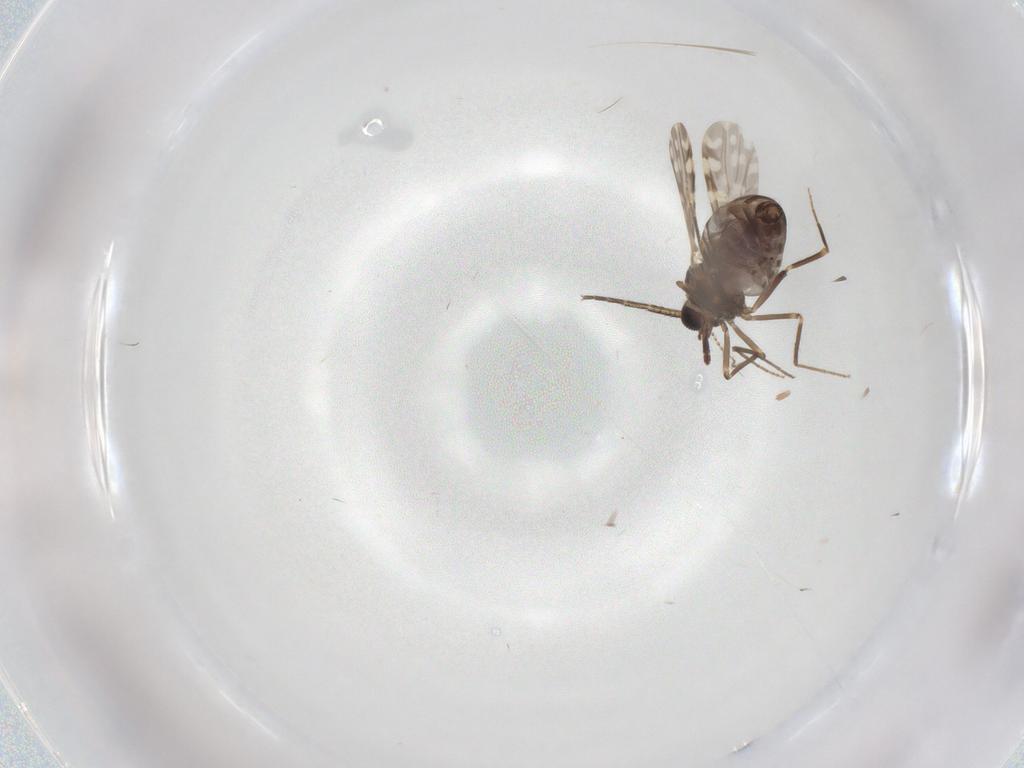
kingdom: Animalia
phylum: Arthropoda
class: Insecta
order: Diptera
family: Ceratopogonidae
